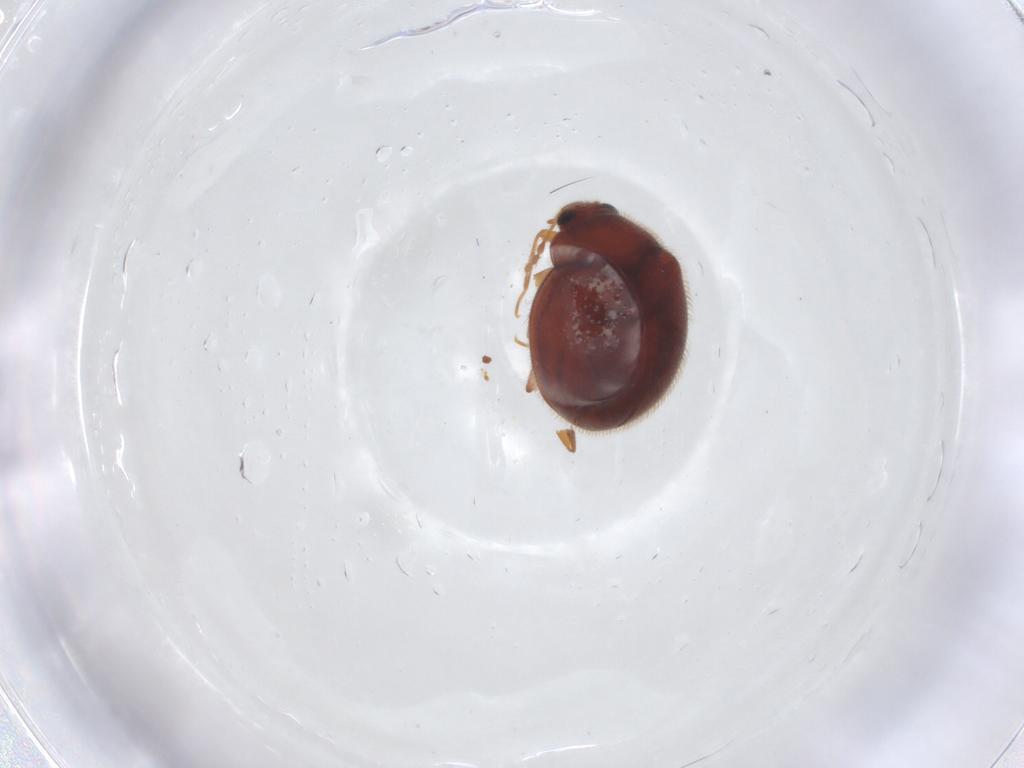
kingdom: Animalia
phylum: Arthropoda
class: Insecta
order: Coleoptera
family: Anamorphidae
